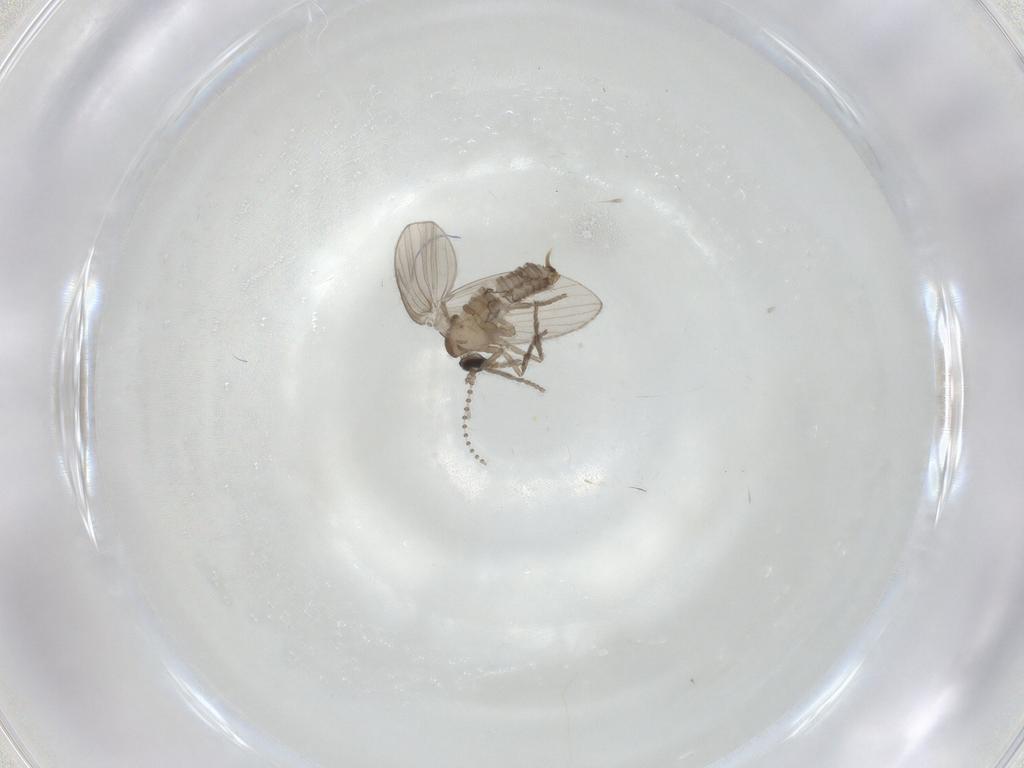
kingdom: Animalia
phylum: Arthropoda
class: Insecta
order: Diptera
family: Psychodidae
